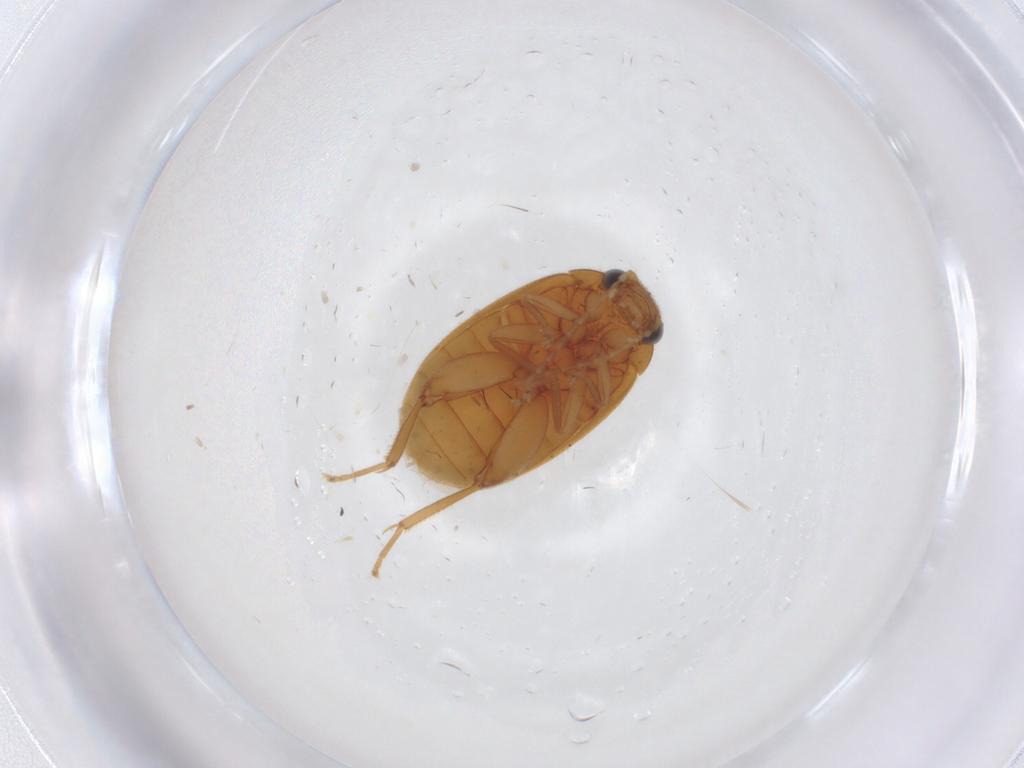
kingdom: Animalia
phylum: Arthropoda
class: Insecta
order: Coleoptera
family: Scirtidae
